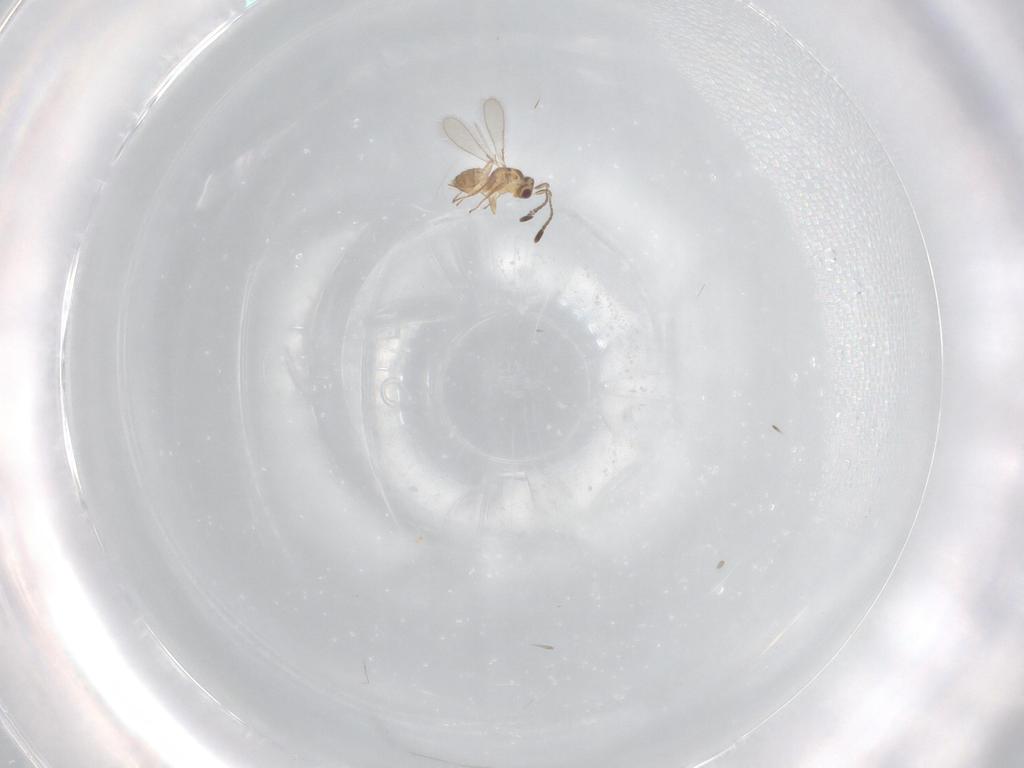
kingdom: Animalia
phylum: Arthropoda
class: Insecta
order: Hymenoptera
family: Mymaridae
